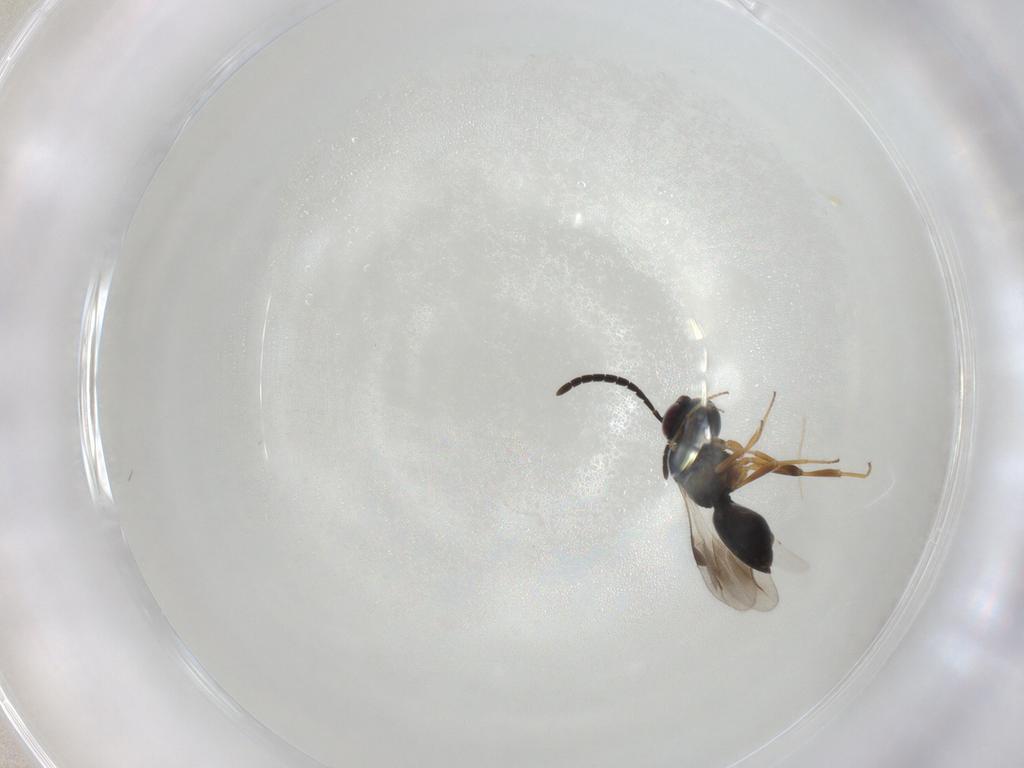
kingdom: Animalia
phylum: Arthropoda
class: Insecta
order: Hymenoptera
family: Megaspilidae
